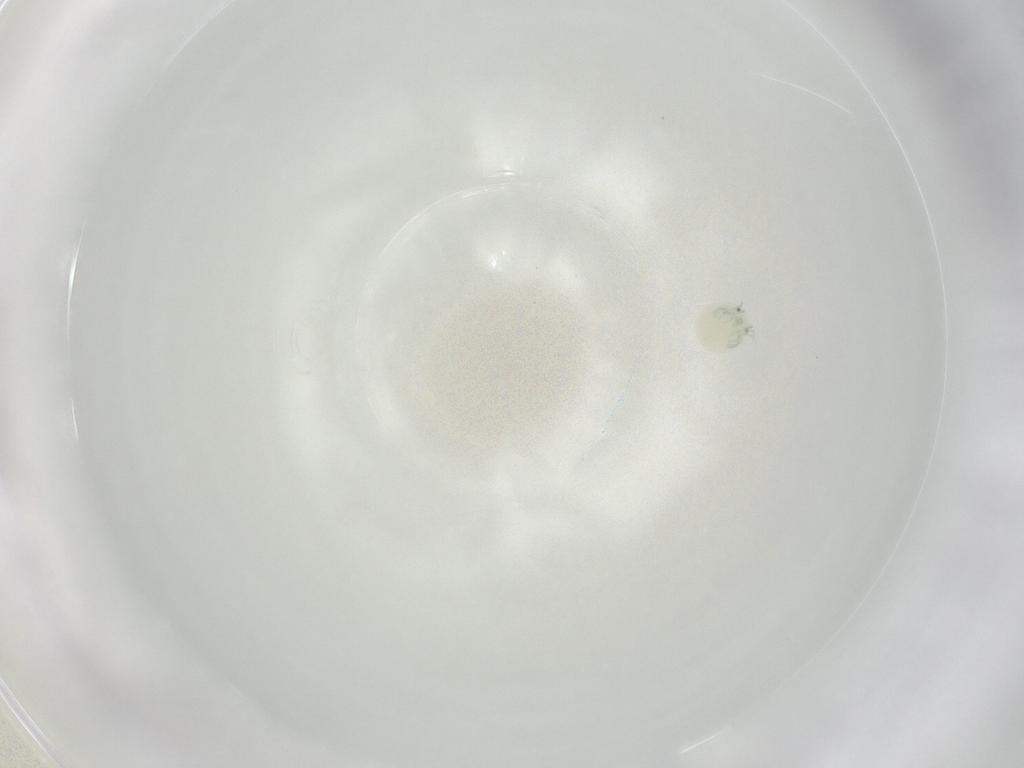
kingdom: Animalia
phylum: Arthropoda
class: Arachnida
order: Trombidiformes
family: Arrenuridae
